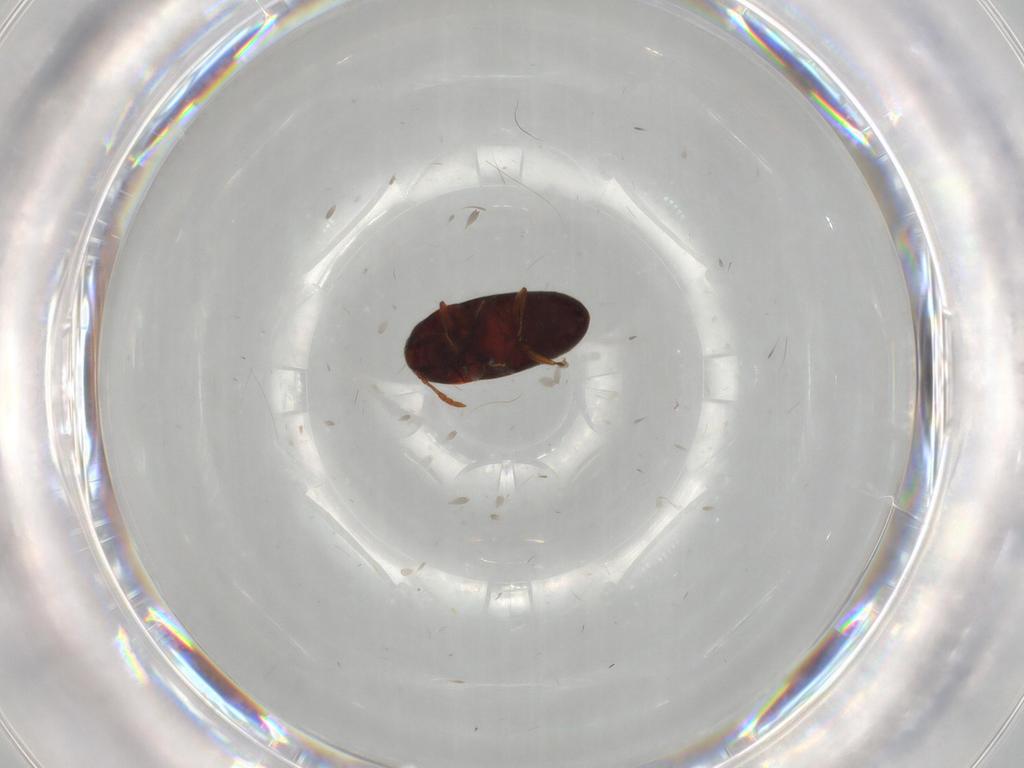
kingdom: Animalia
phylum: Arthropoda
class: Insecta
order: Coleoptera
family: Throscidae
